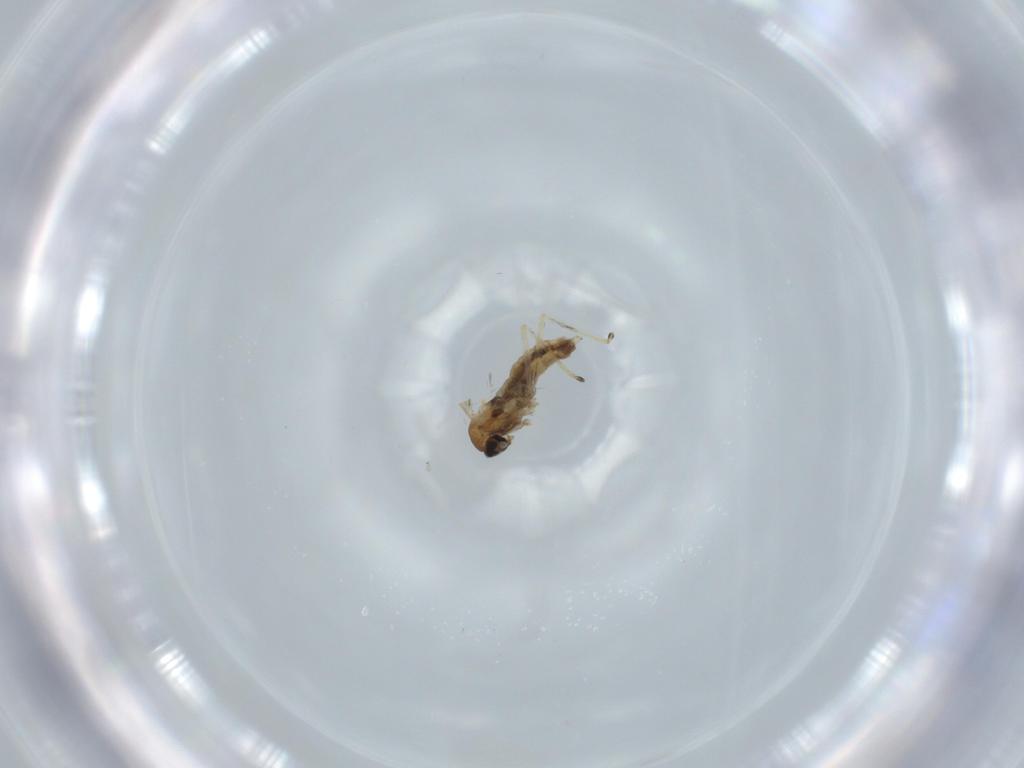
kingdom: Animalia
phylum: Arthropoda
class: Insecta
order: Diptera
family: Cecidomyiidae
